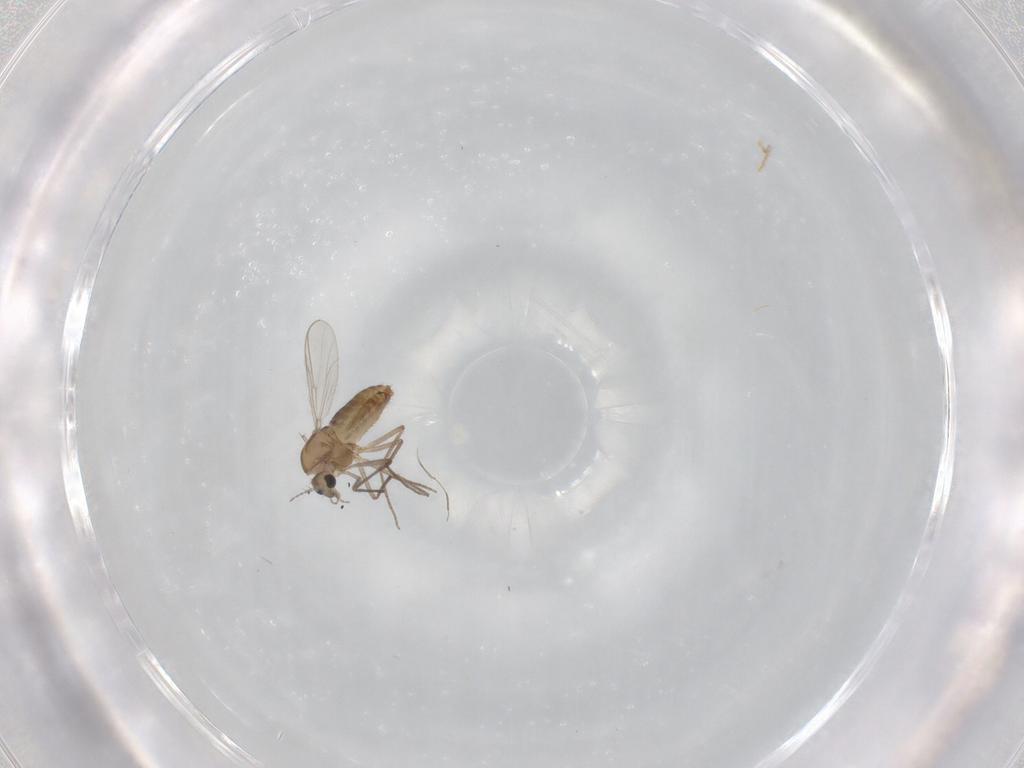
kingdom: Animalia
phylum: Arthropoda
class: Insecta
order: Diptera
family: Chironomidae
